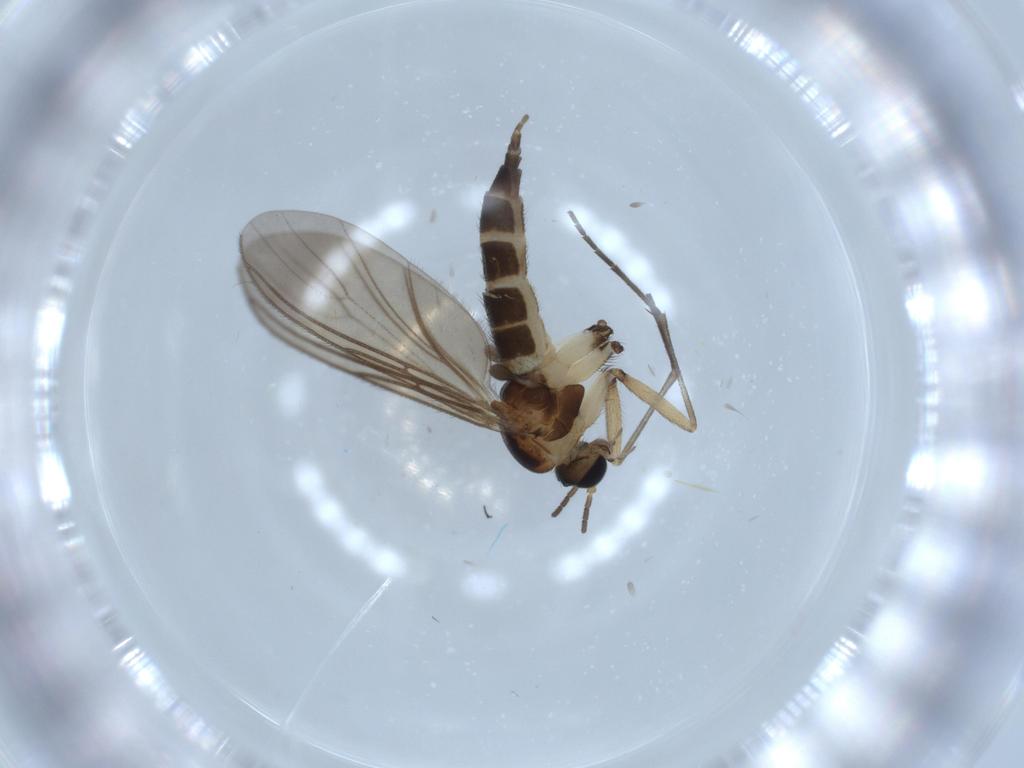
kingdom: Animalia
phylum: Arthropoda
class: Insecta
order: Diptera
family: Sciaridae
